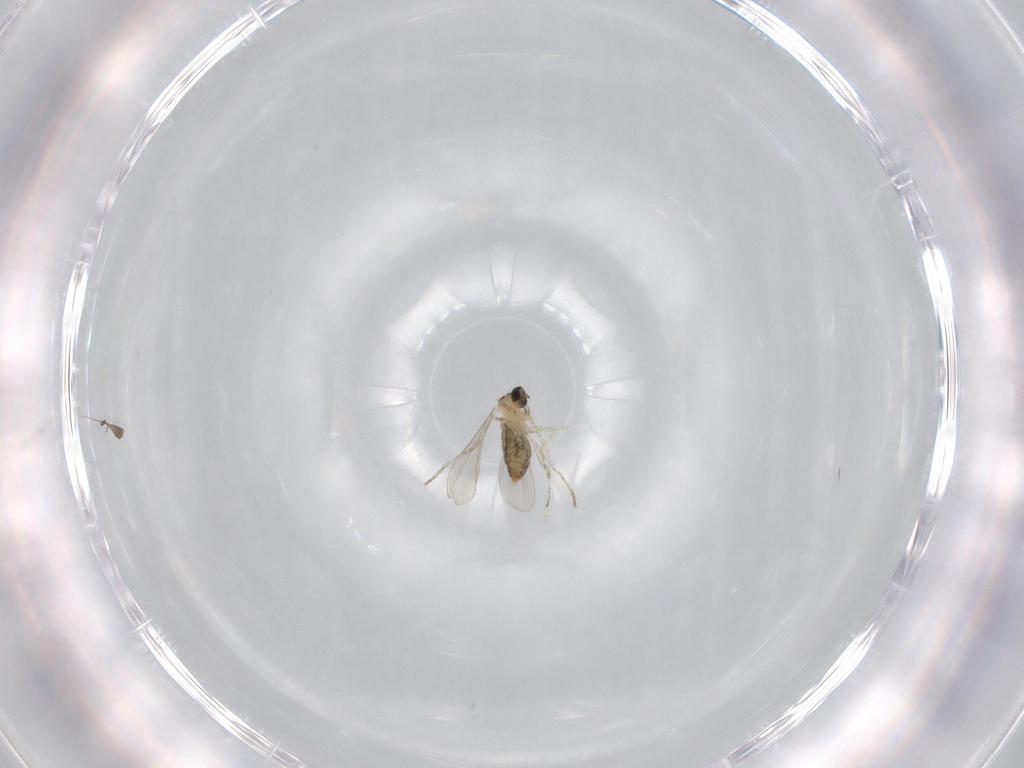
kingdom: Animalia
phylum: Arthropoda
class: Insecta
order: Diptera
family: Cecidomyiidae
